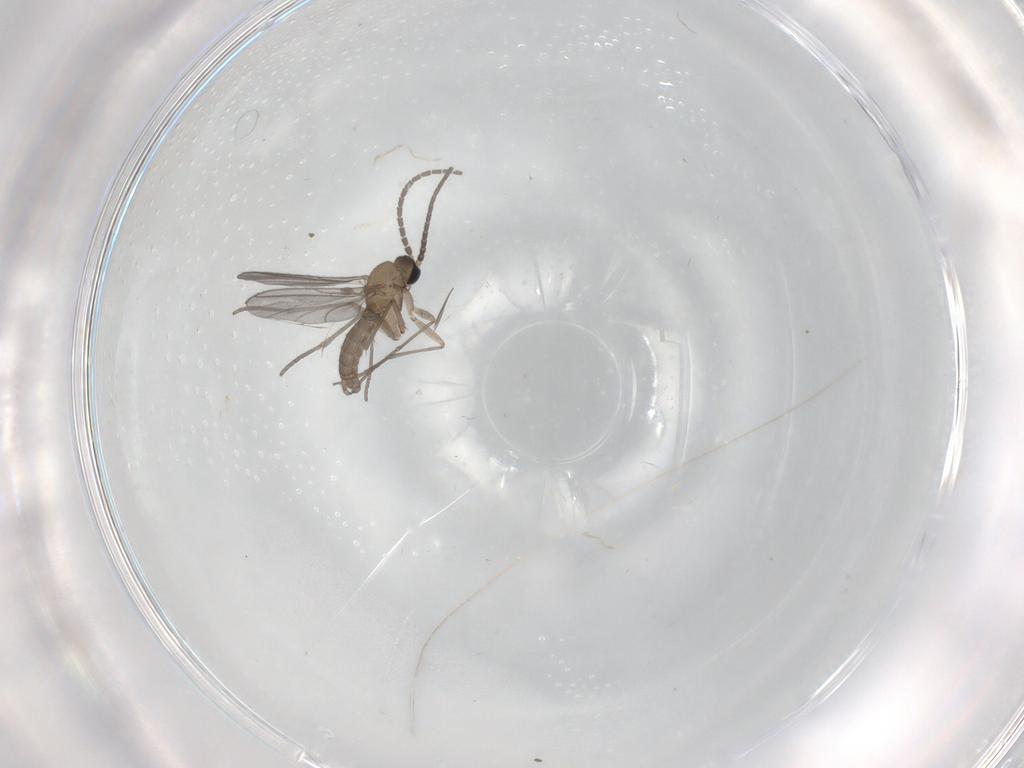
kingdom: Animalia
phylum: Arthropoda
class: Insecta
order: Diptera
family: Sciaridae
